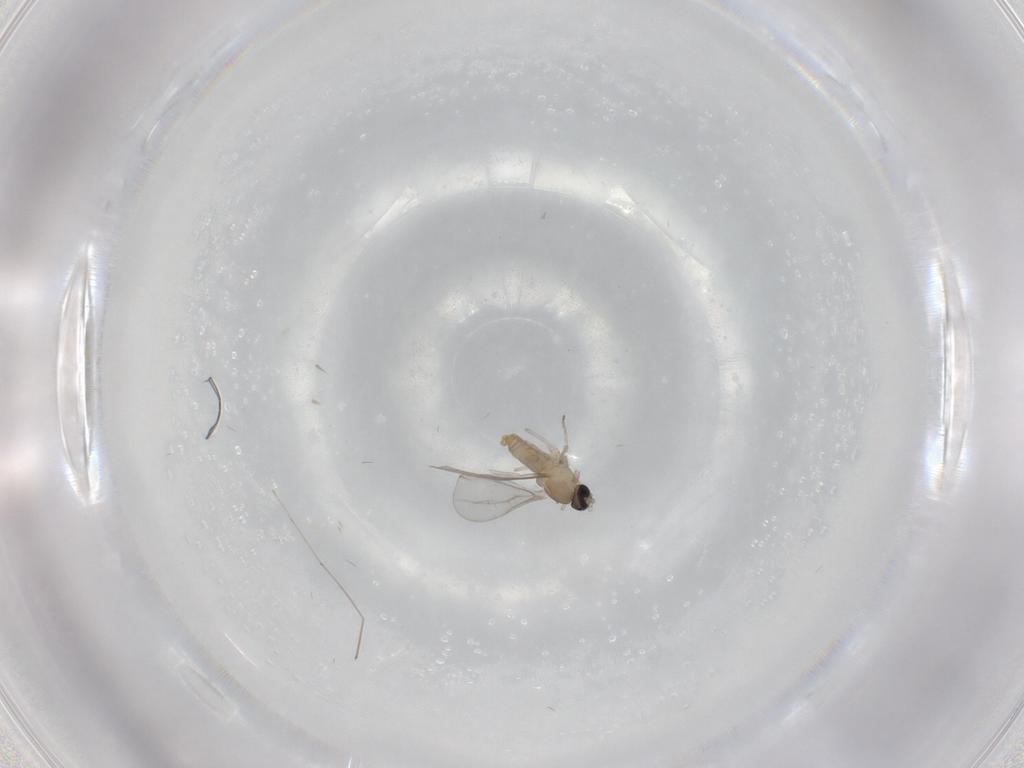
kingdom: Animalia
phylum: Arthropoda
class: Insecta
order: Diptera
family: Cecidomyiidae
